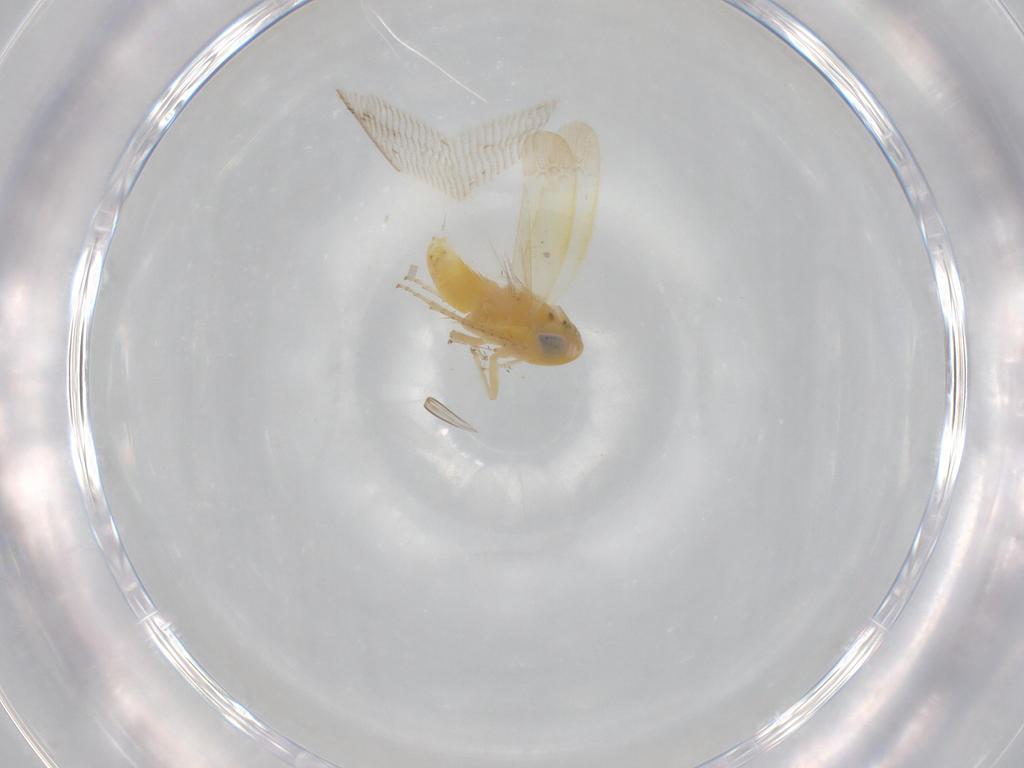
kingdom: Animalia
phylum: Arthropoda
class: Insecta
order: Hemiptera
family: Cicadellidae
